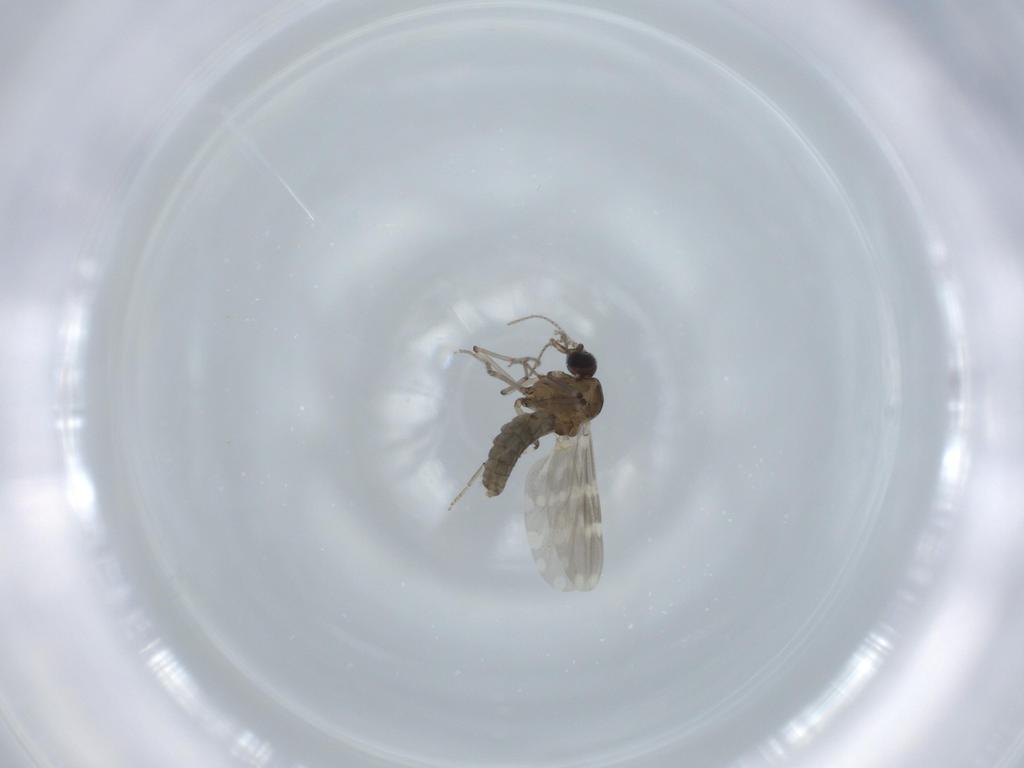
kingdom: Animalia
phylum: Arthropoda
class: Insecta
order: Diptera
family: Ceratopogonidae
